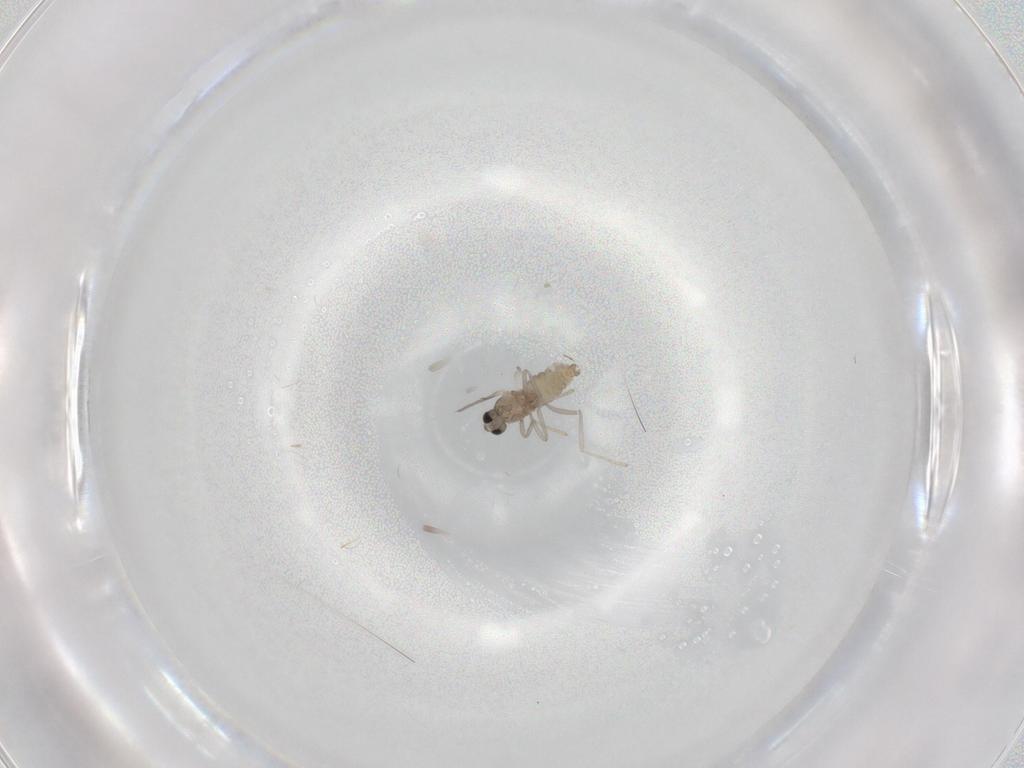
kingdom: Animalia
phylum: Arthropoda
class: Insecta
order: Diptera
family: Cecidomyiidae
